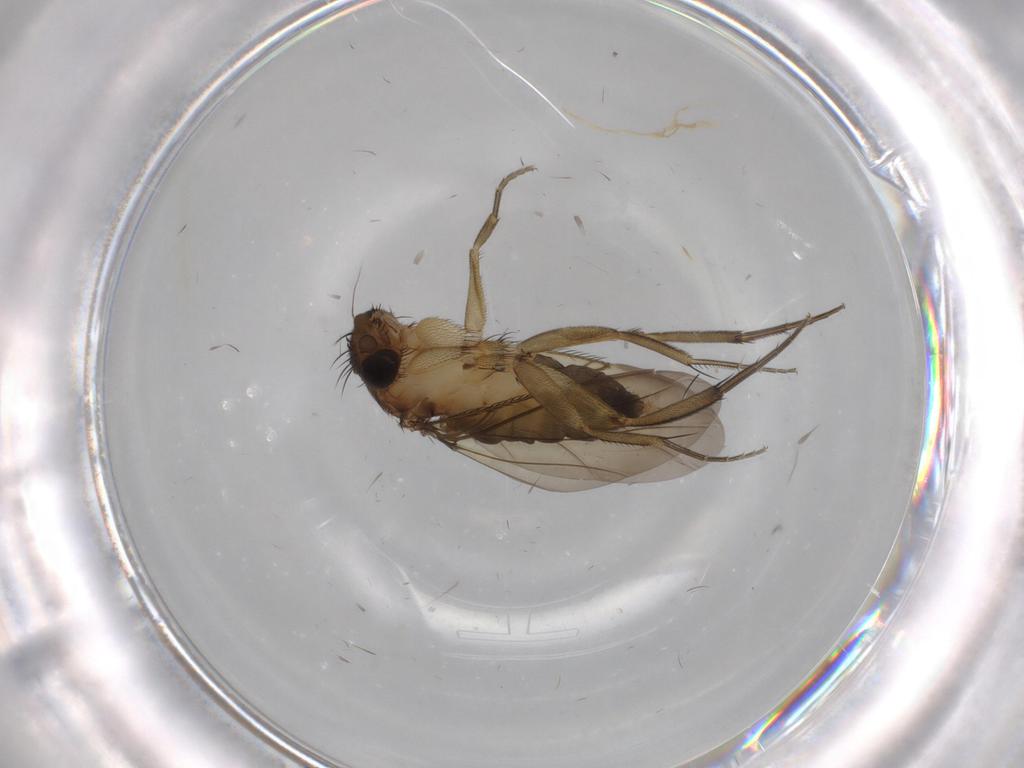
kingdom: Animalia
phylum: Arthropoda
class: Insecta
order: Diptera
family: Phoridae
